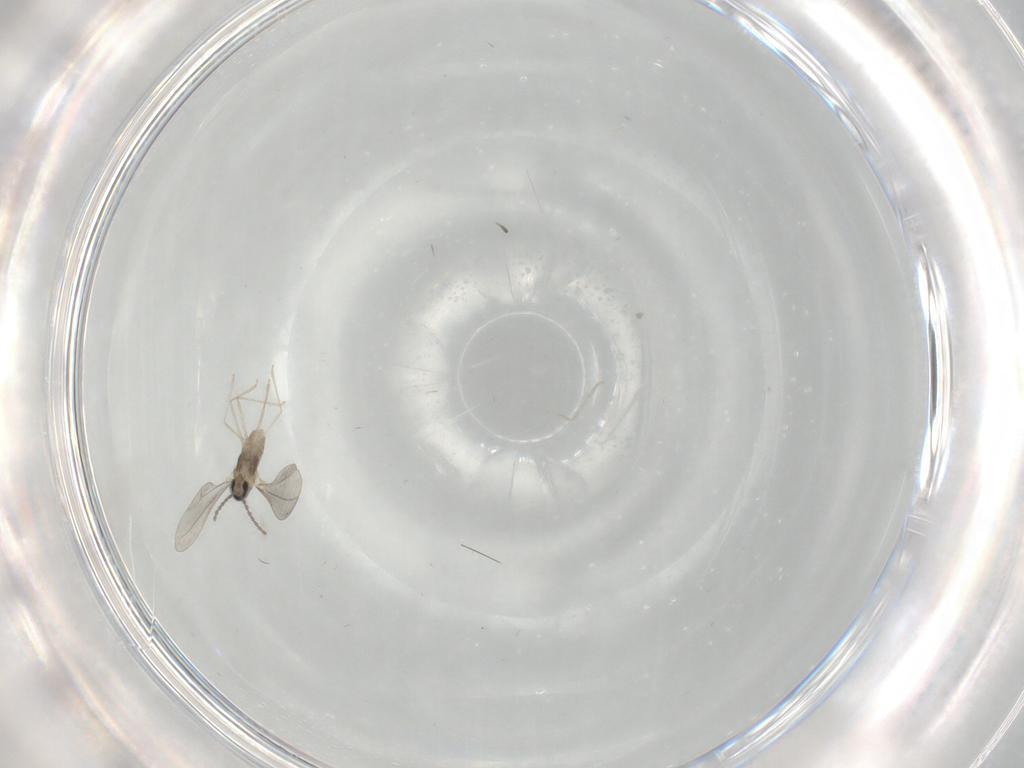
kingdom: Animalia
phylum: Arthropoda
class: Insecta
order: Diptera
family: Cecidomyiidae
